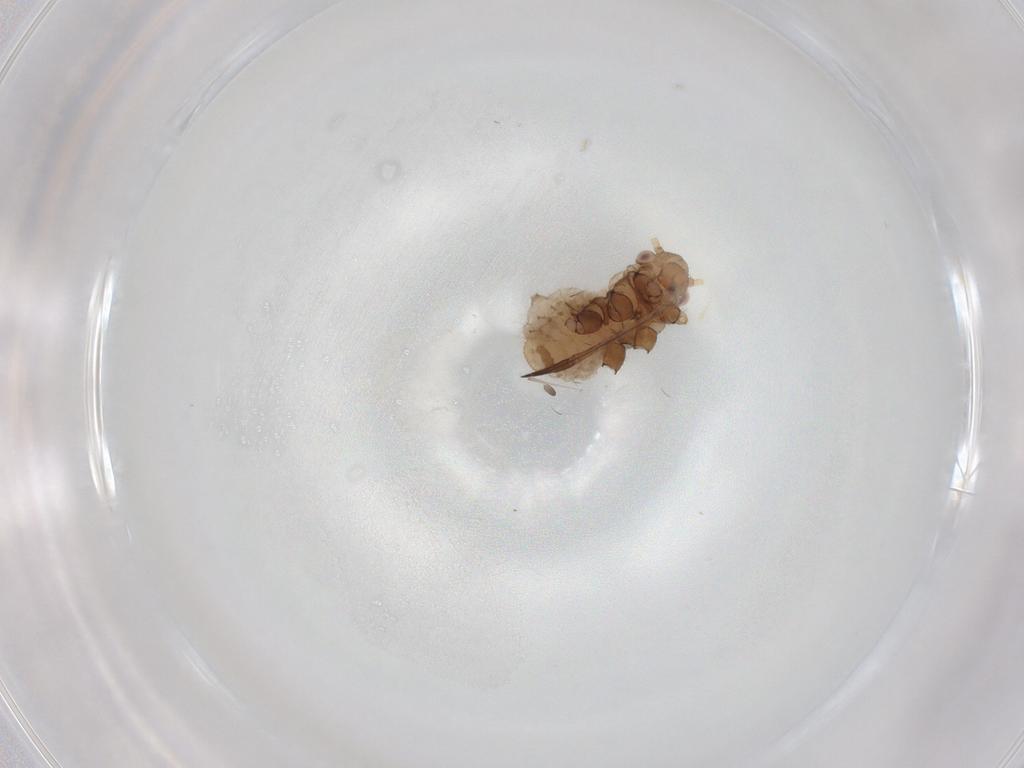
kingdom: Animalia
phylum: Arthropoda
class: Insecta
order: Hemiptera
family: Aphididae
